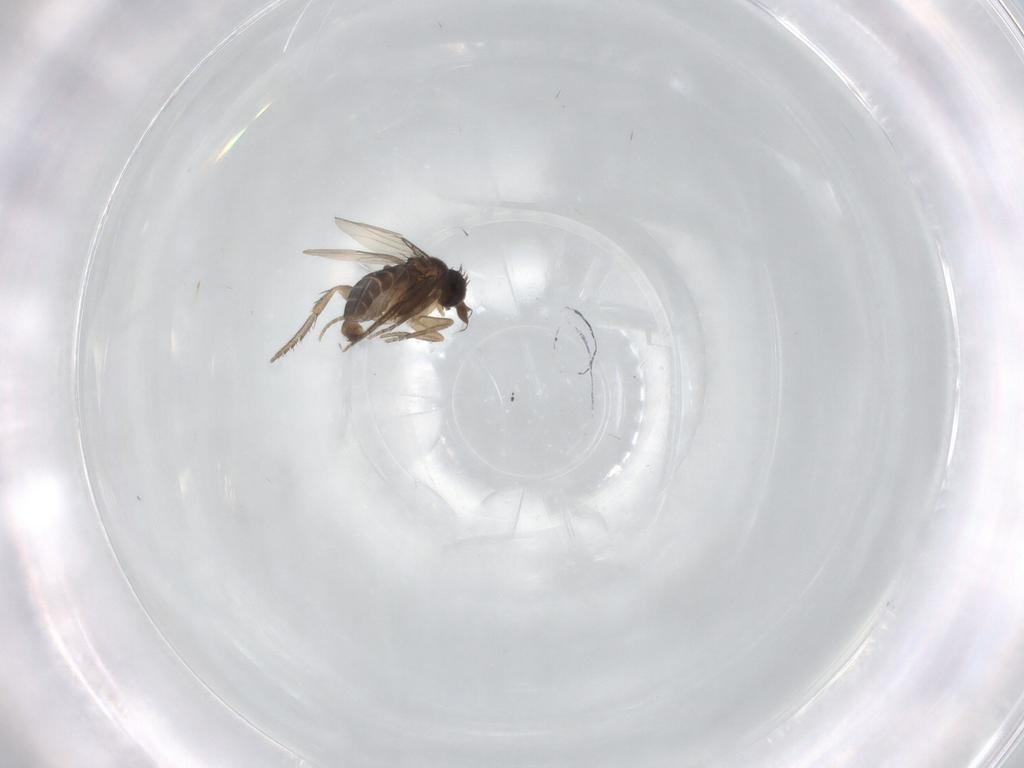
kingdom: Animalia
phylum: Arthropoda
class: Insecta
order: Diptera
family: Phoridae
